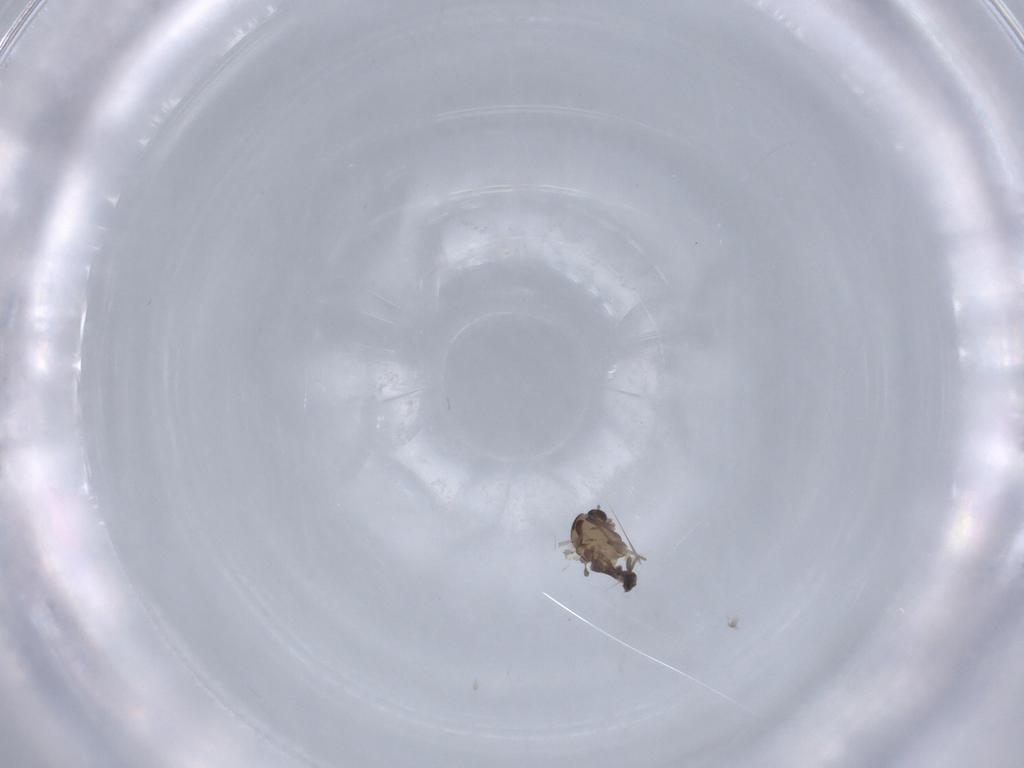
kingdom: Animalia
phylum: Arthropoda
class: Insecta
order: Diptera
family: Chironomidae
